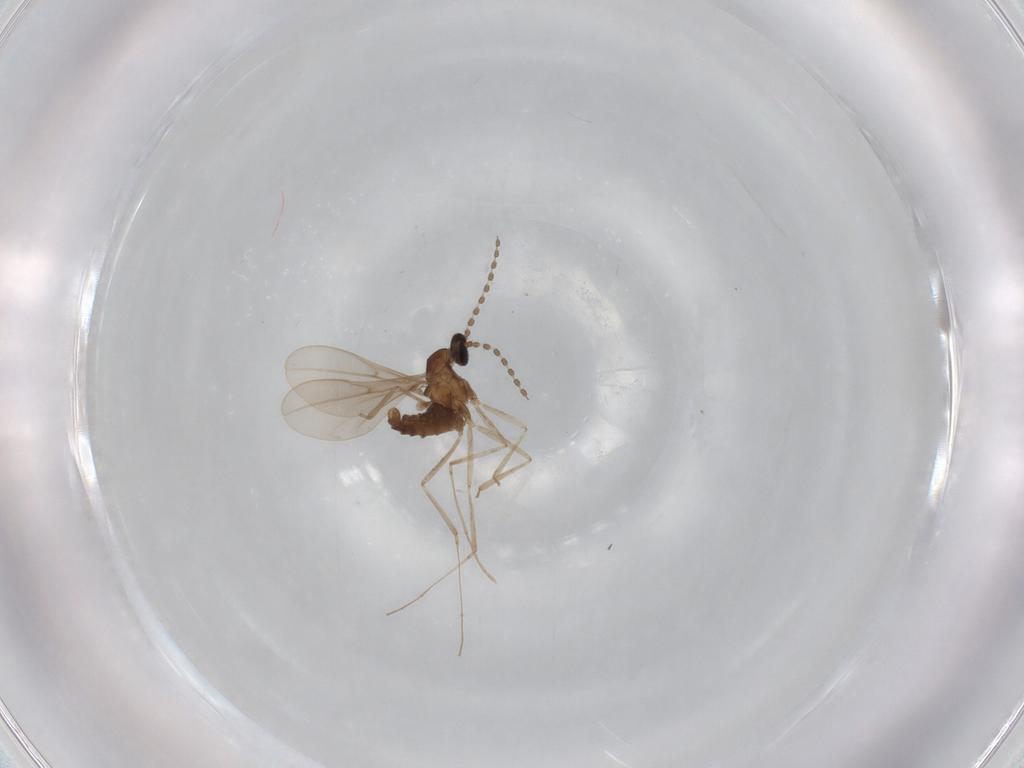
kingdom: Animalia
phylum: Arthropoda
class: Insecta
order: Diptera
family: Cecidomyiidae
